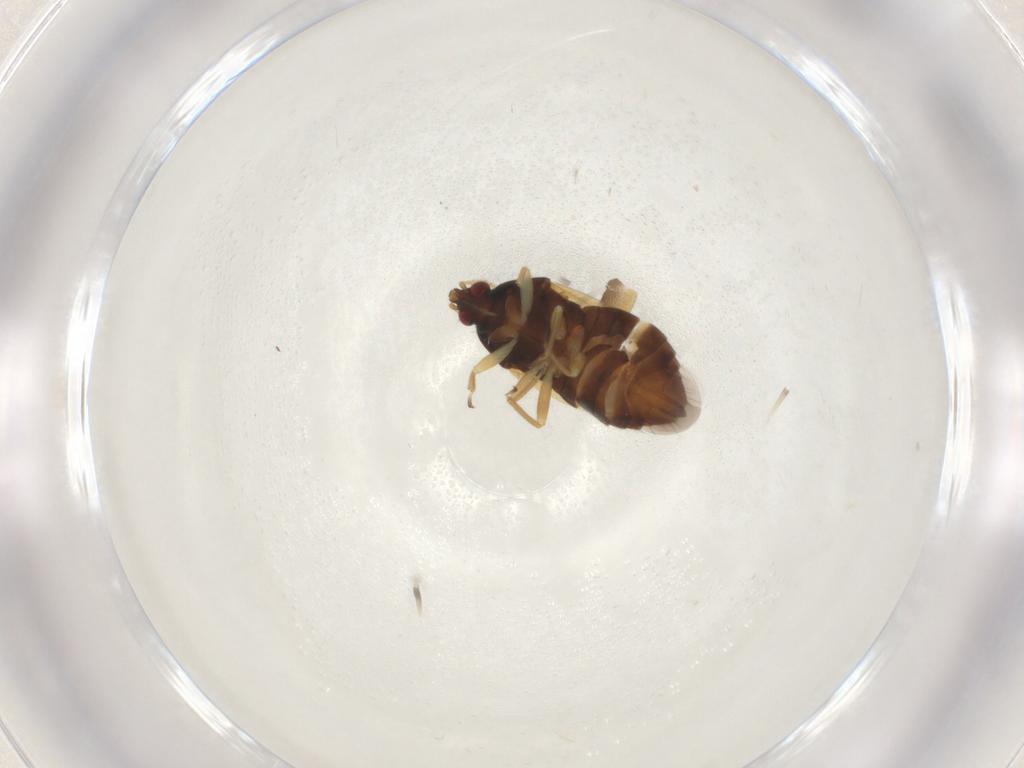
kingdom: Animalia
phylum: Arthropoda
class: Insecta
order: Hemiptera
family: Anthocoridae
